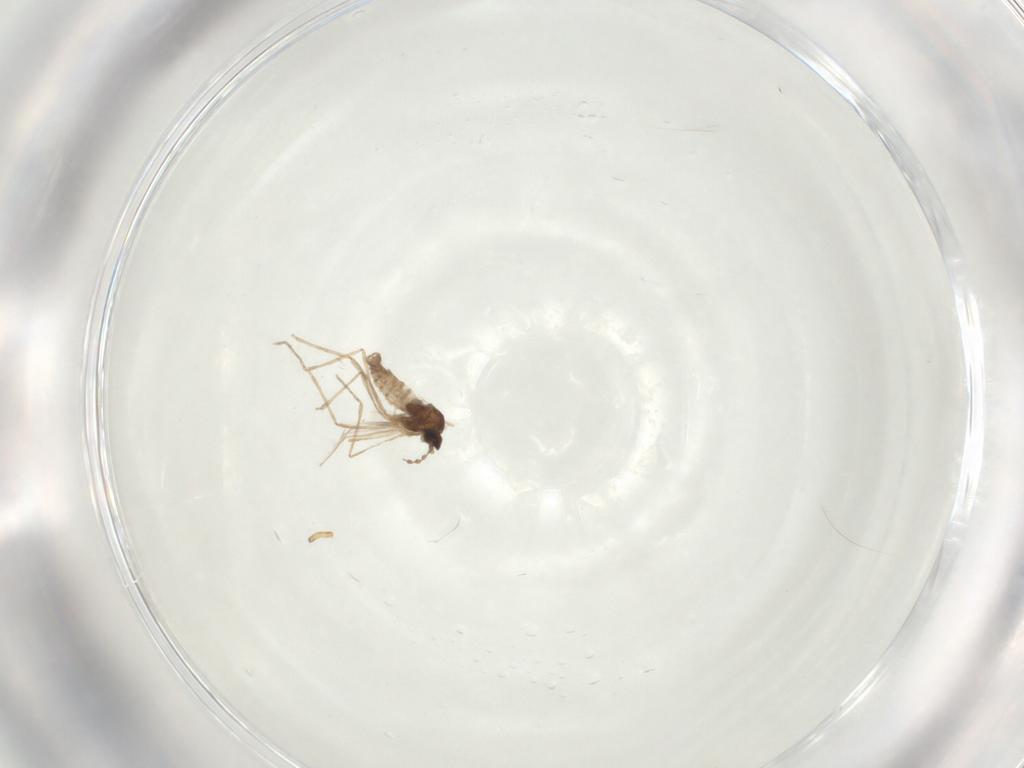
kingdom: Animalia
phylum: Arthropoda
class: Insecta
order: Diptera
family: Cecidomyiidae
